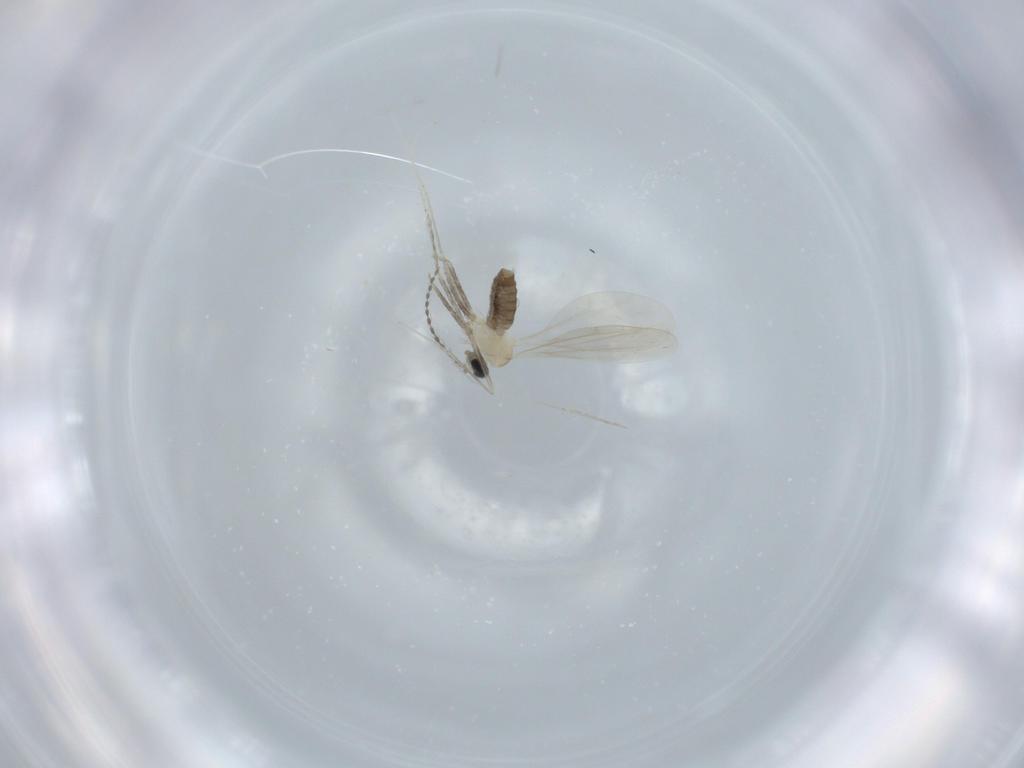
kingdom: Animalia
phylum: Arthropoda
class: Insecta
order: Diptera
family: Cecidomyiidae
